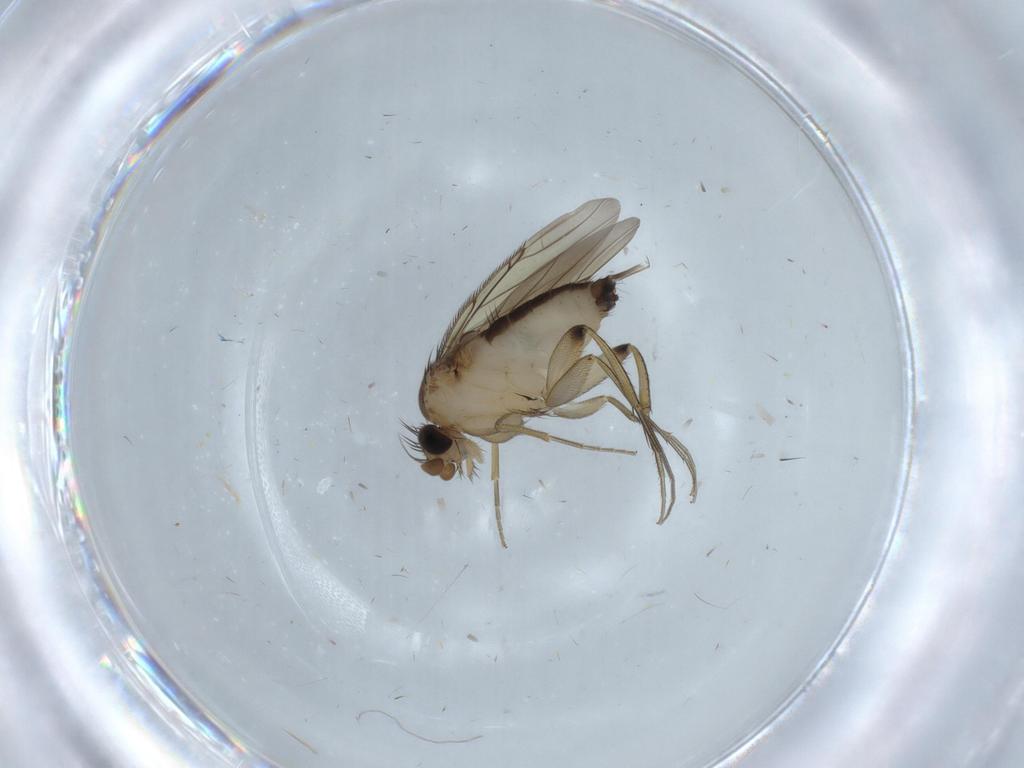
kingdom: Animalia
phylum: Arthropoda
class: Insecta
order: Diptera
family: Phoridae
